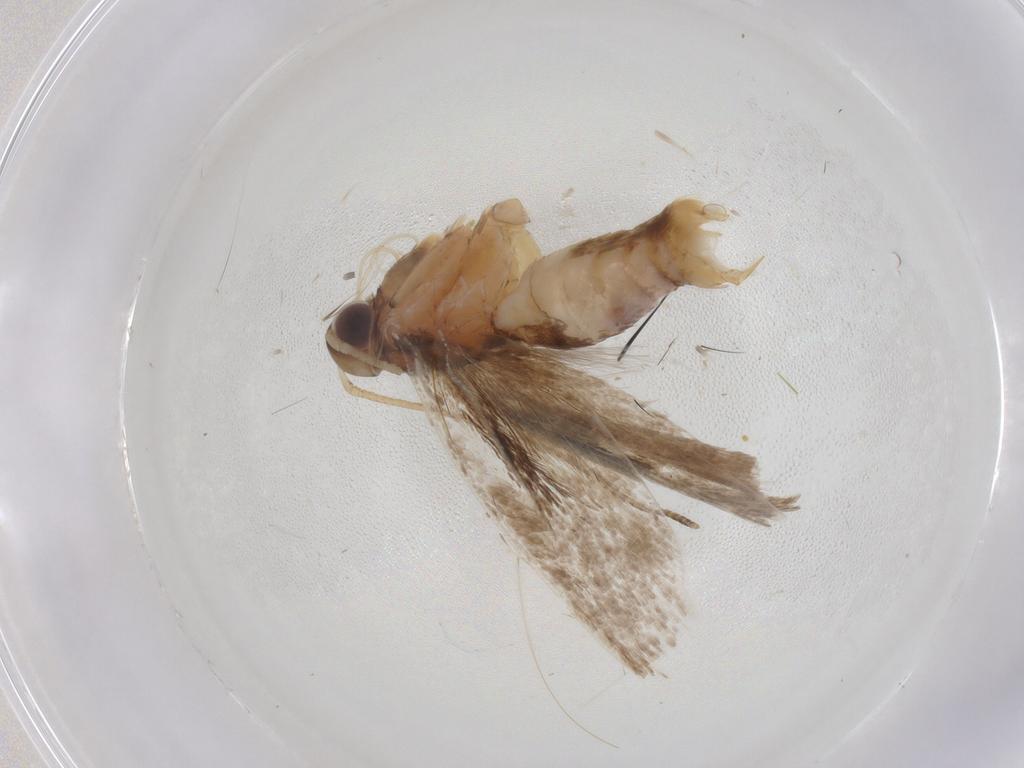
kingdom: Animalia
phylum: Arthropoda
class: Insecta
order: Lepidoptera
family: Gelechiidae
